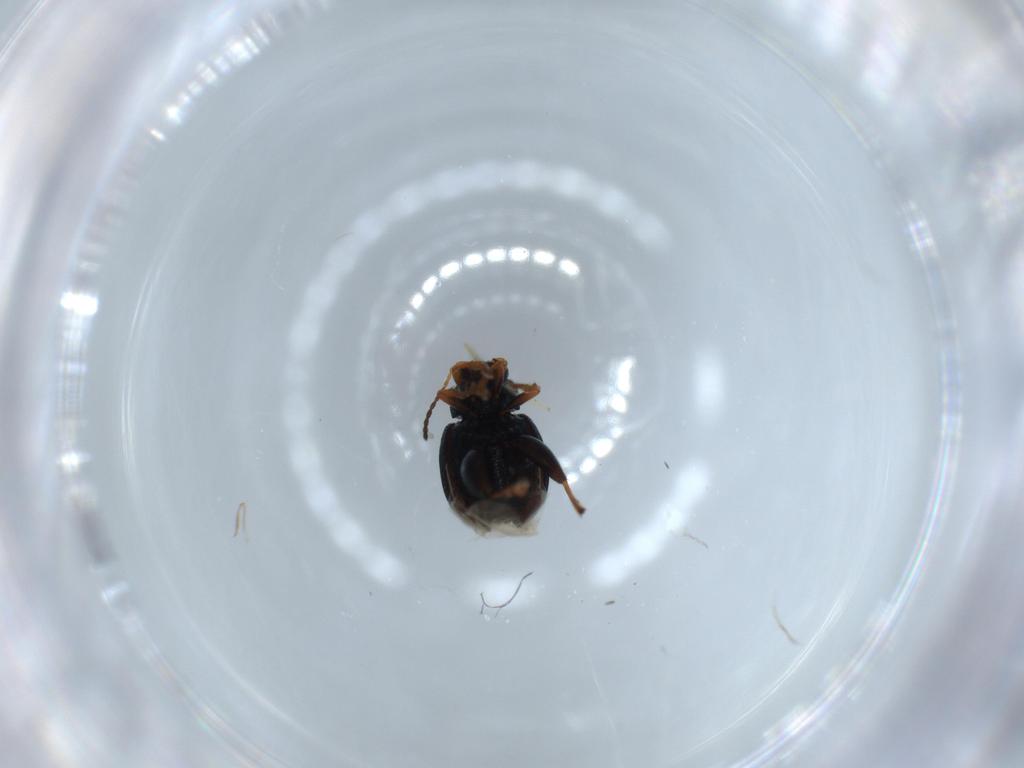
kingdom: Animalia
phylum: Arthropoda
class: Insecta
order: Coleoptera
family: Chrysomelidae
